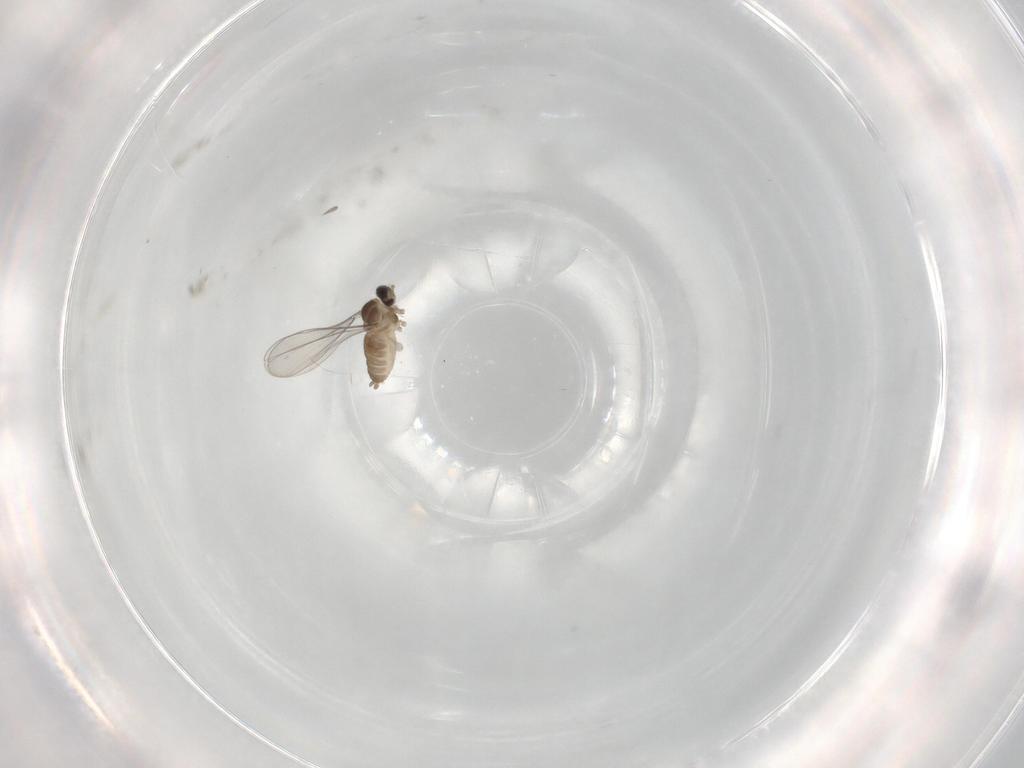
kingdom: Animalia
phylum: Arthropoda
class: Insecta
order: Diptera
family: Cecidomyiidae
